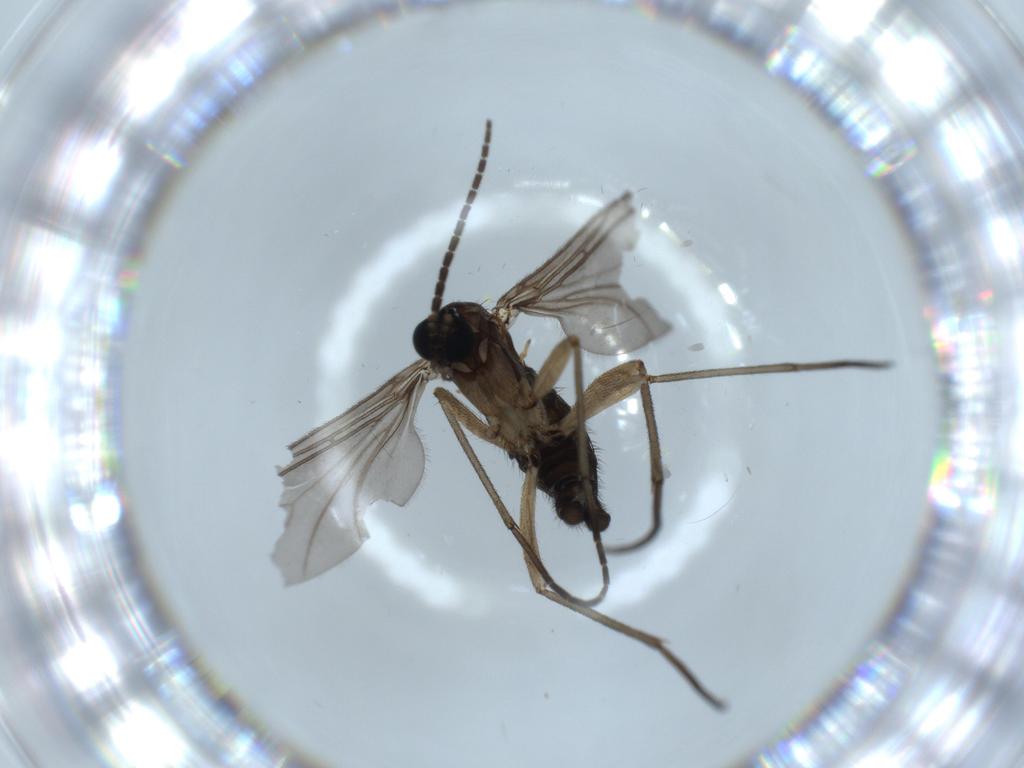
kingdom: Animalia
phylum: Arthropoda
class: Insecta
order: Diptera
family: Sciaridae
